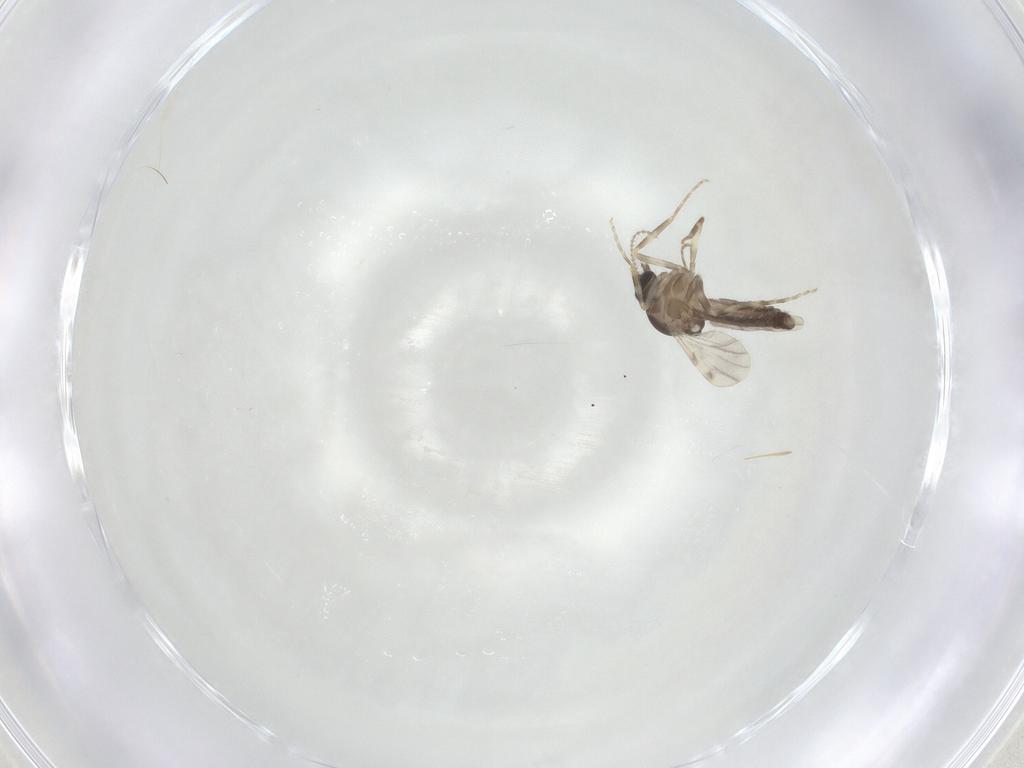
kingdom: Animalia
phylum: Arthropoda
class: Insecta
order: Diptera
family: Ceratopogonidae
